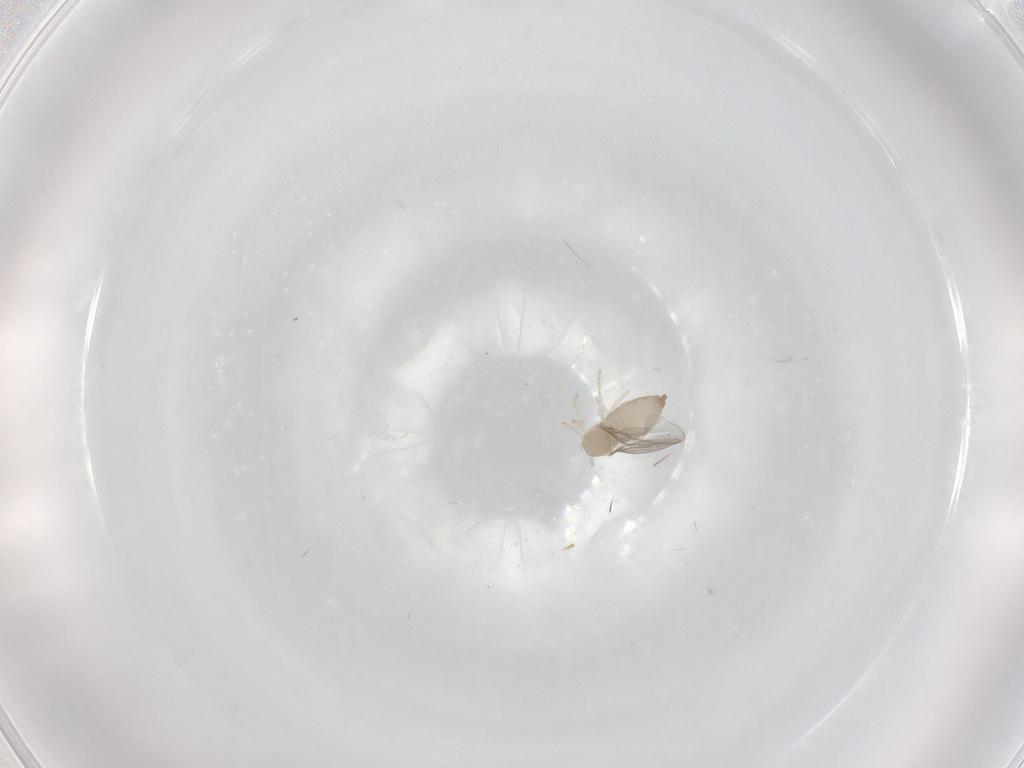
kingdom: Animalia
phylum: Arthropoda
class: Insecta
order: Diptera
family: Cecidomyiidae
